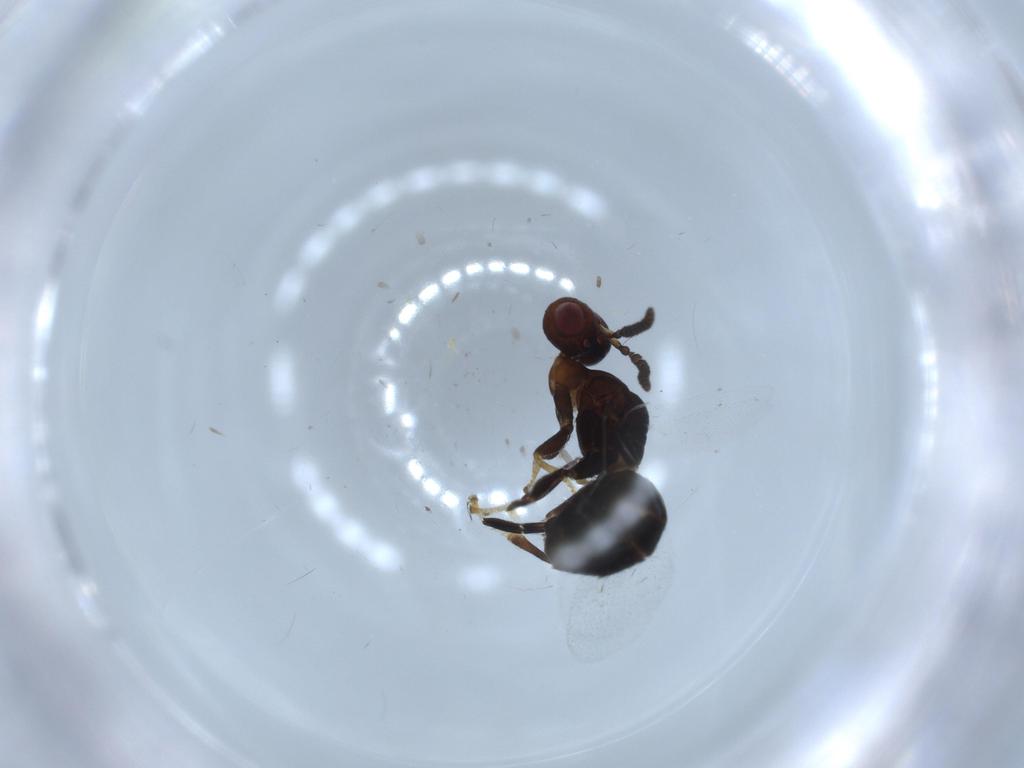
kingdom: Animalia
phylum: Arthropoda
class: Insecta
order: Hymenoptera
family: Agaonidae
